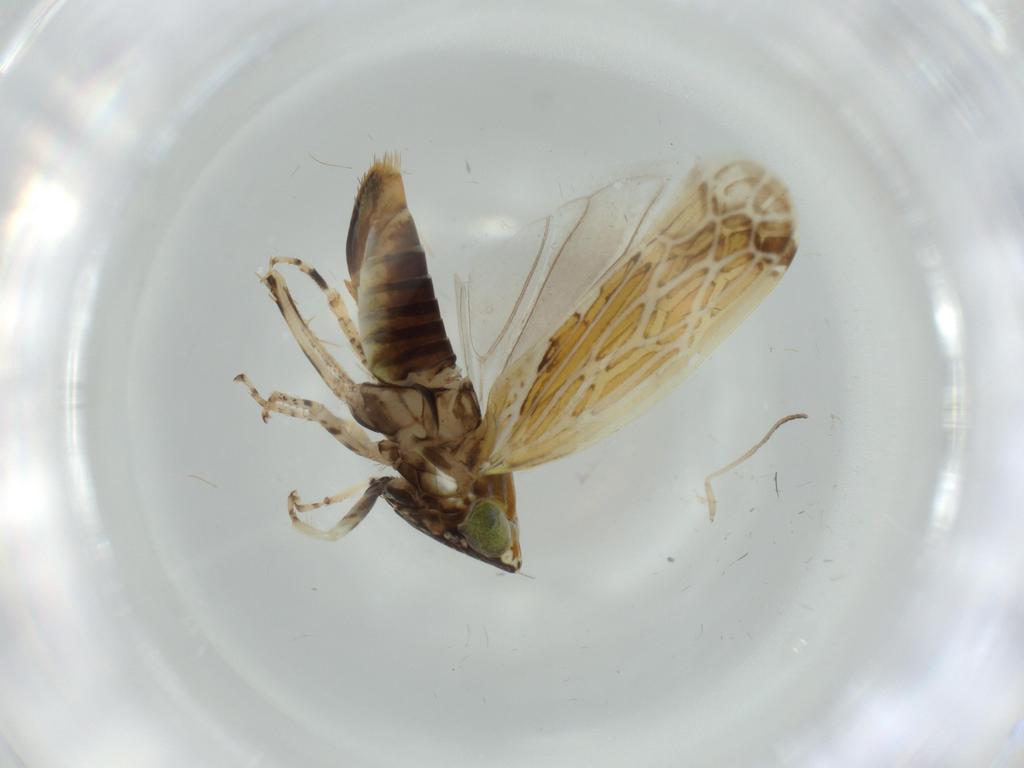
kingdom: Animalia
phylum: Arthropoda
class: Insecta
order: Hemiptera
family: Cicadellidae
